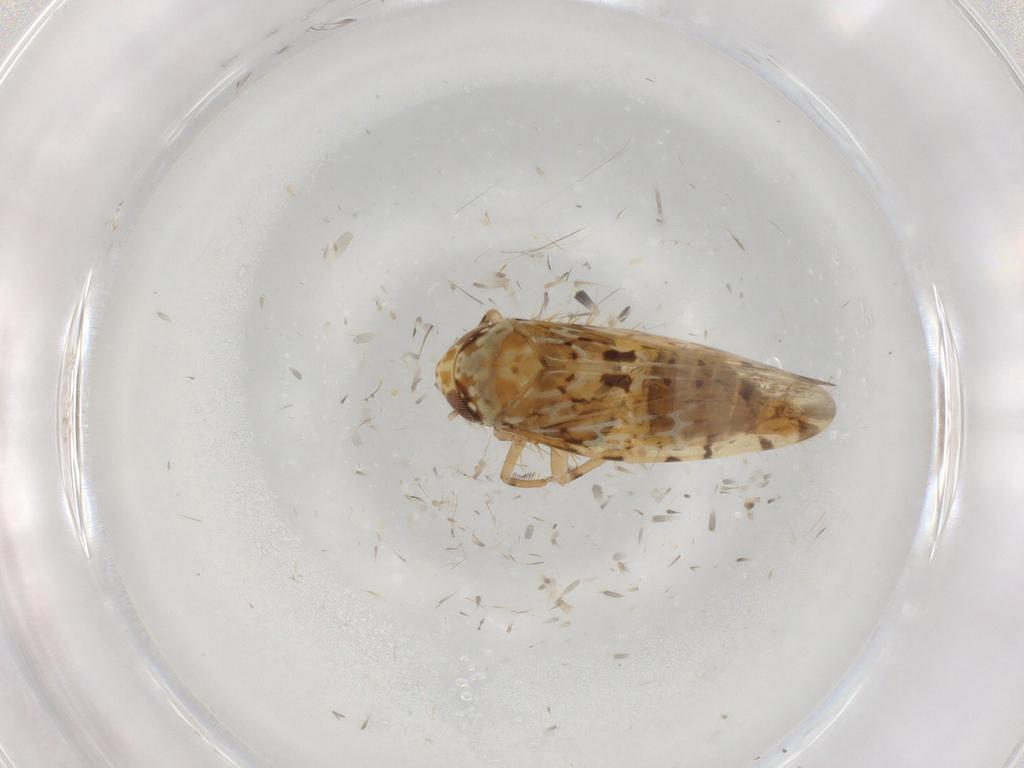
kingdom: Animalia
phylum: Arthropoda
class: Insecta
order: Hemiptera
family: Cicadellidae
